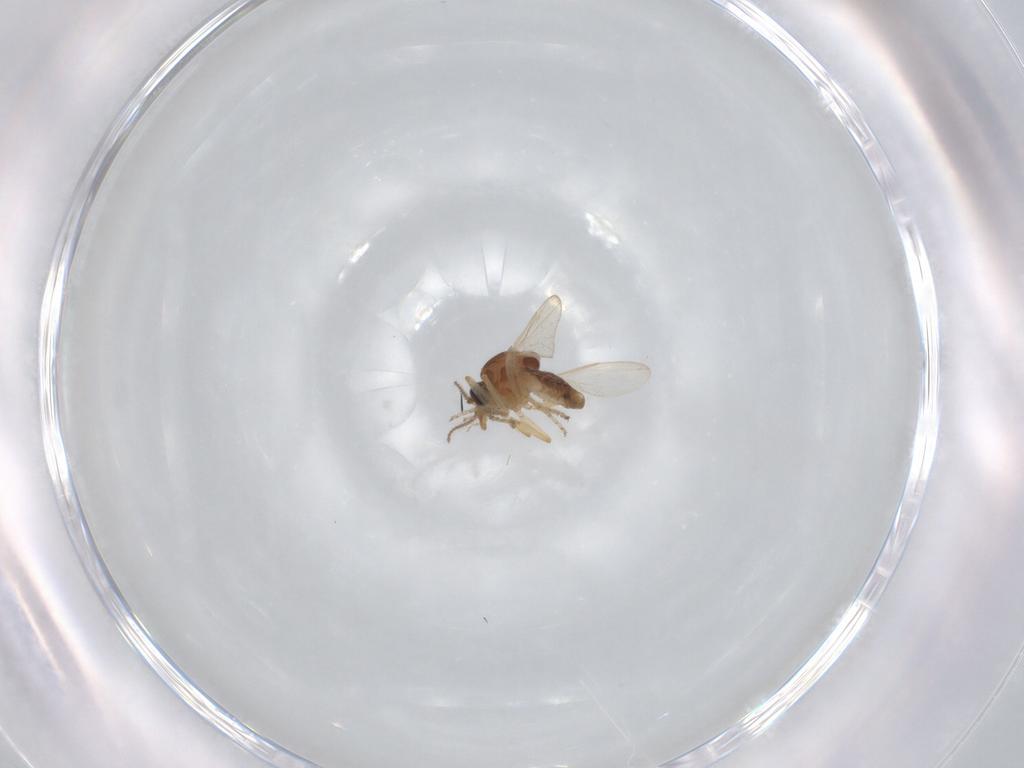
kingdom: Animalia
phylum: Arthropoda
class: Insecta
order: Diptera
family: Ceratopogonidae
